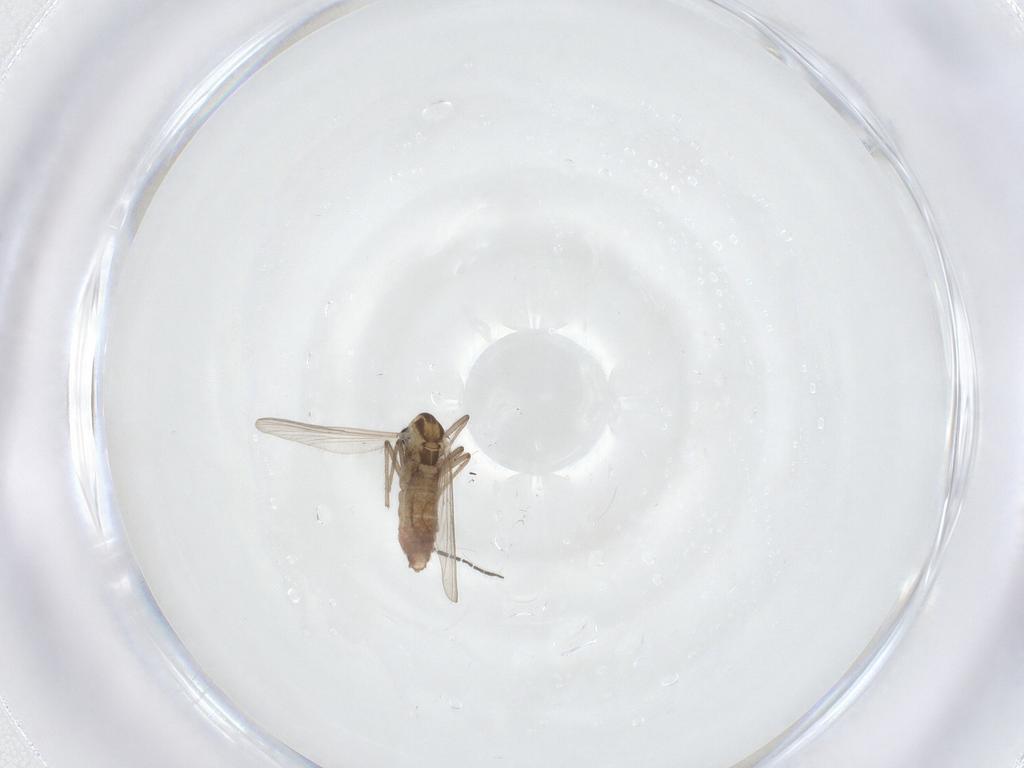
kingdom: Animalia
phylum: Arthropoda
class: Insecta
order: Diptera
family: Chironomidae
